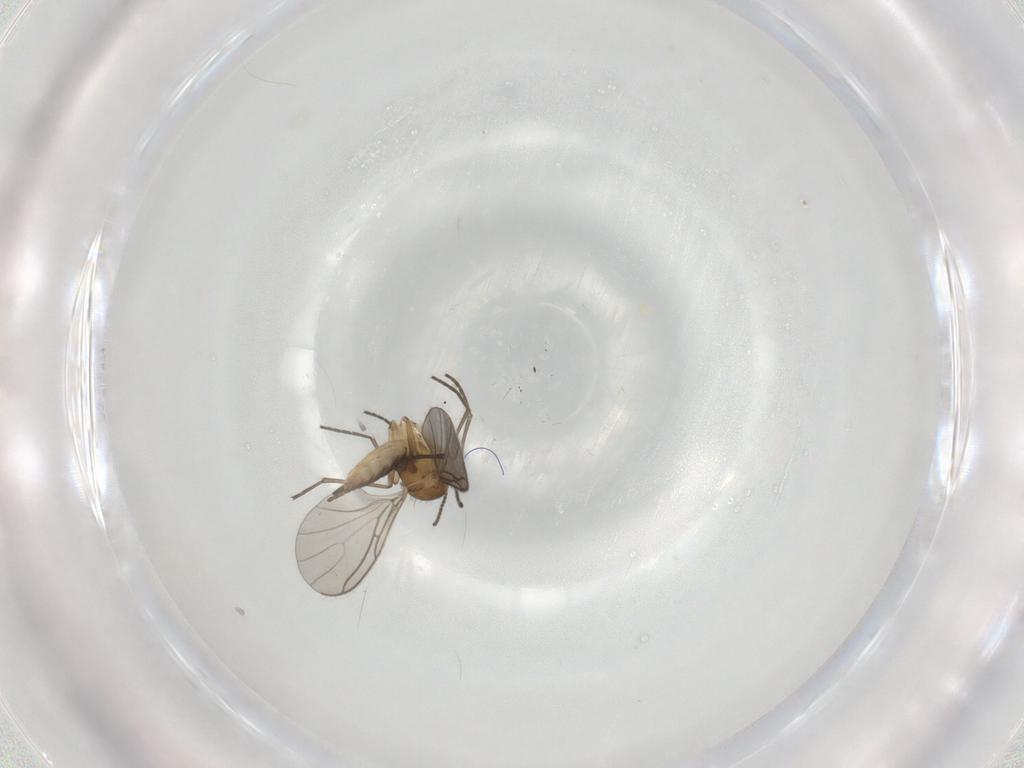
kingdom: Animalia
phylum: Arthropoda
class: Insecta
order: Diptera
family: Sciaridae
